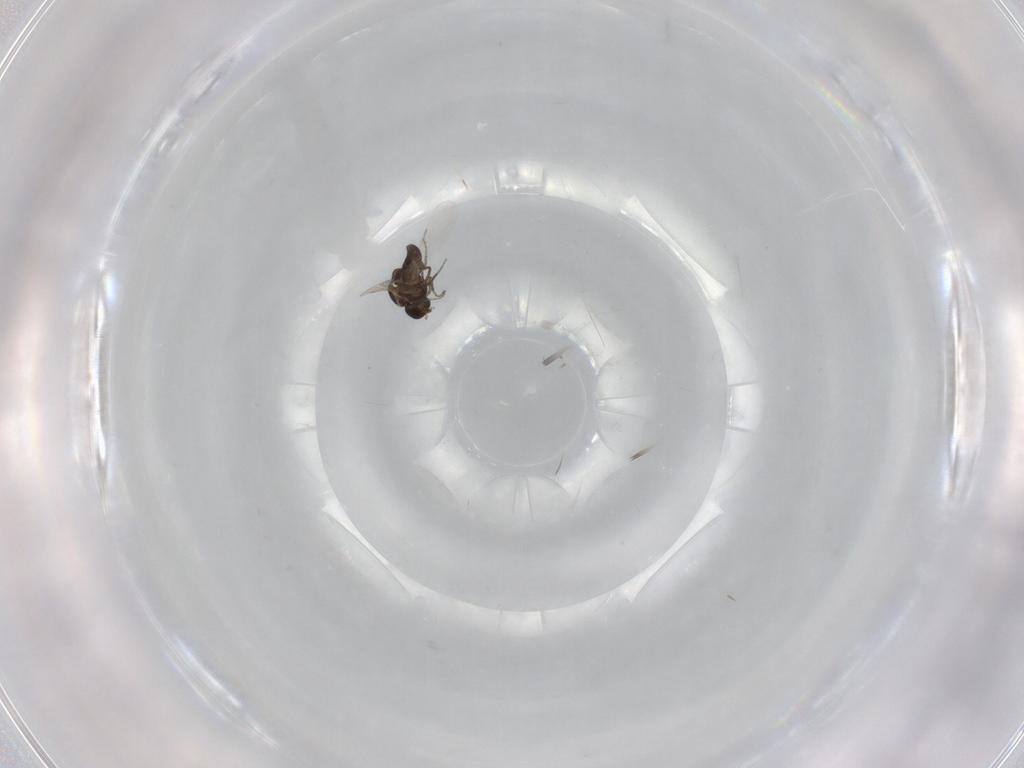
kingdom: Animalia
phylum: Arthropoda
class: Insecta
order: Diptera
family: Ceratopogonidae
